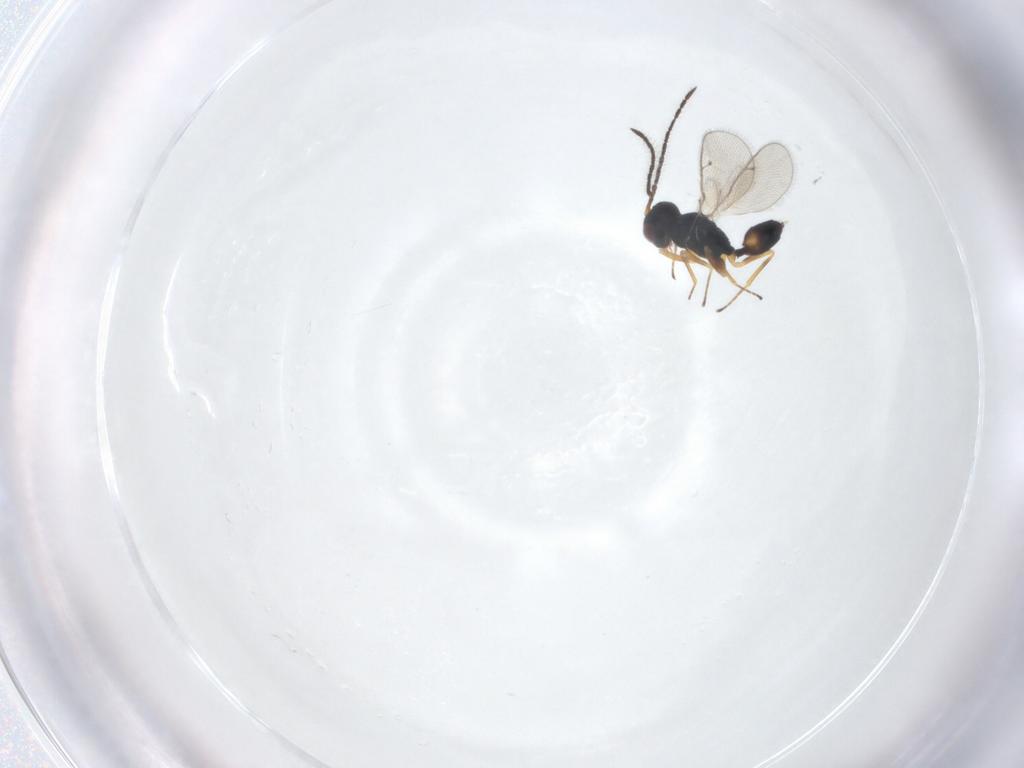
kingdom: Animalia
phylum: Arthropoda
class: Insecta
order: Hymenoptera
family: Pteromalidae
